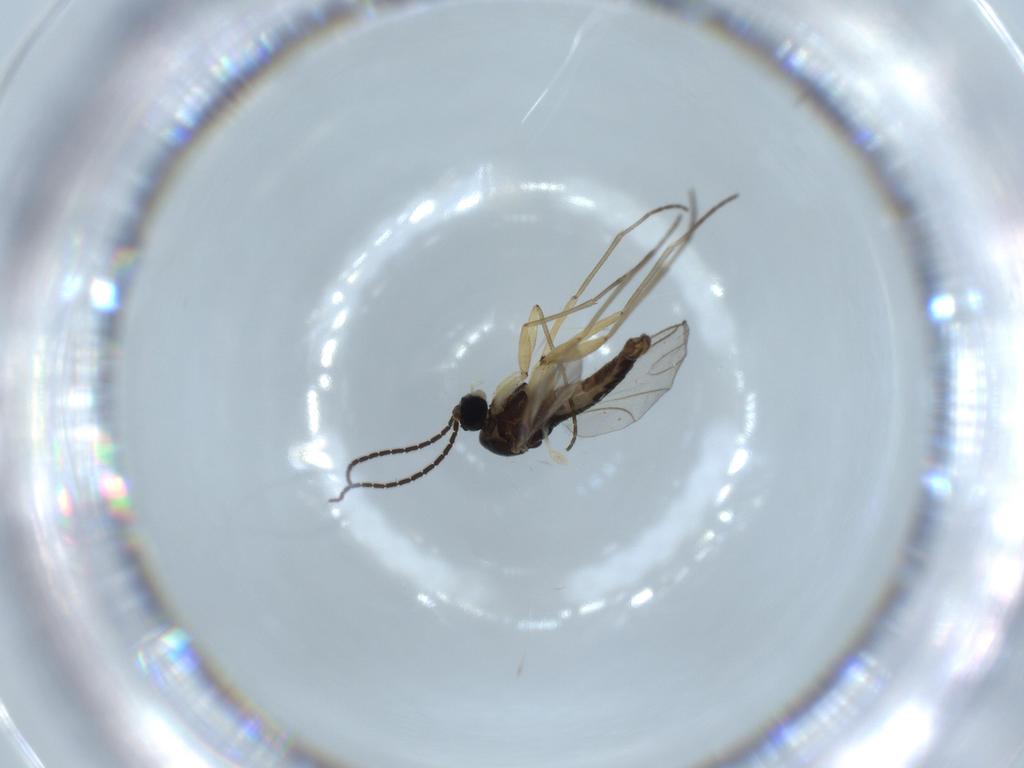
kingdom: Animalia
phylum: Arthropoda
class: Insecta
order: Diptera
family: Sciaridae
